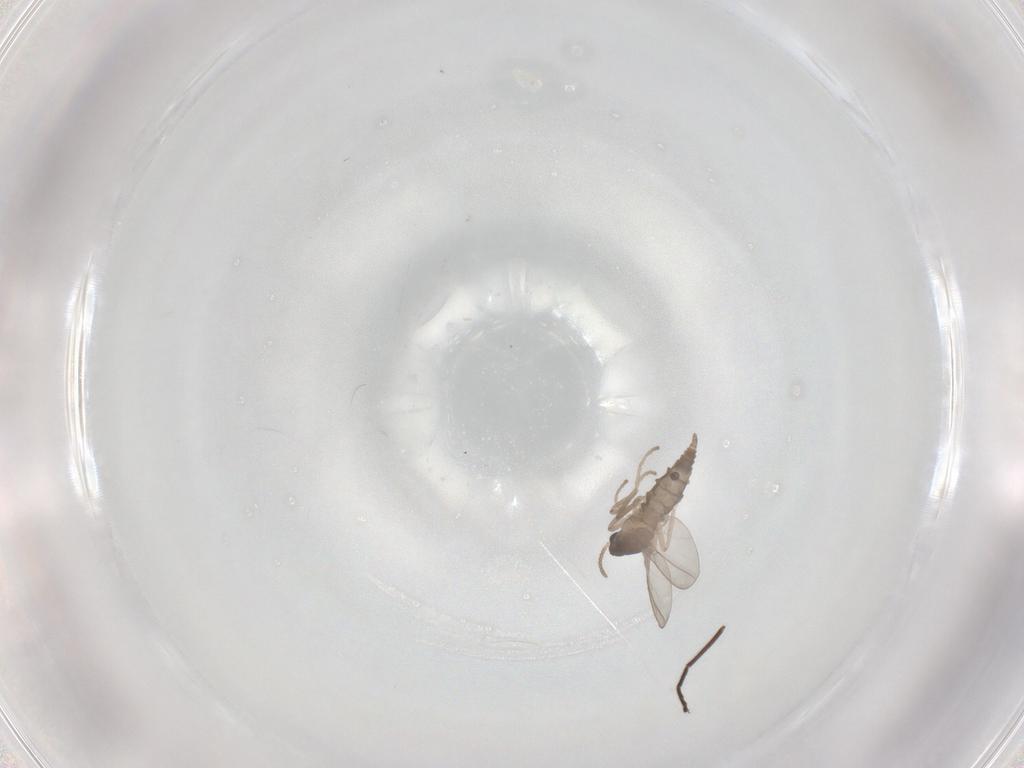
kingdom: Animalia
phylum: Arthropoda
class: Insecta
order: Diptera
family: Cecidomyiidae
